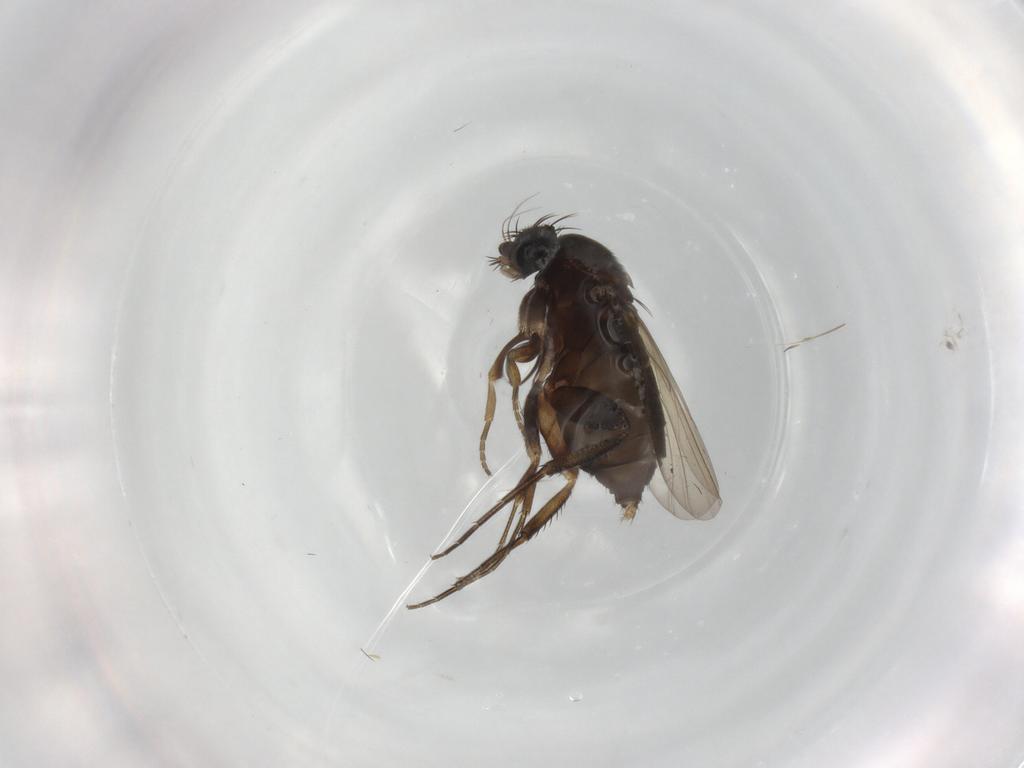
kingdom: Animalia
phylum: Arthropoda
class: Insecta
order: Diptera
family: Phoridae
